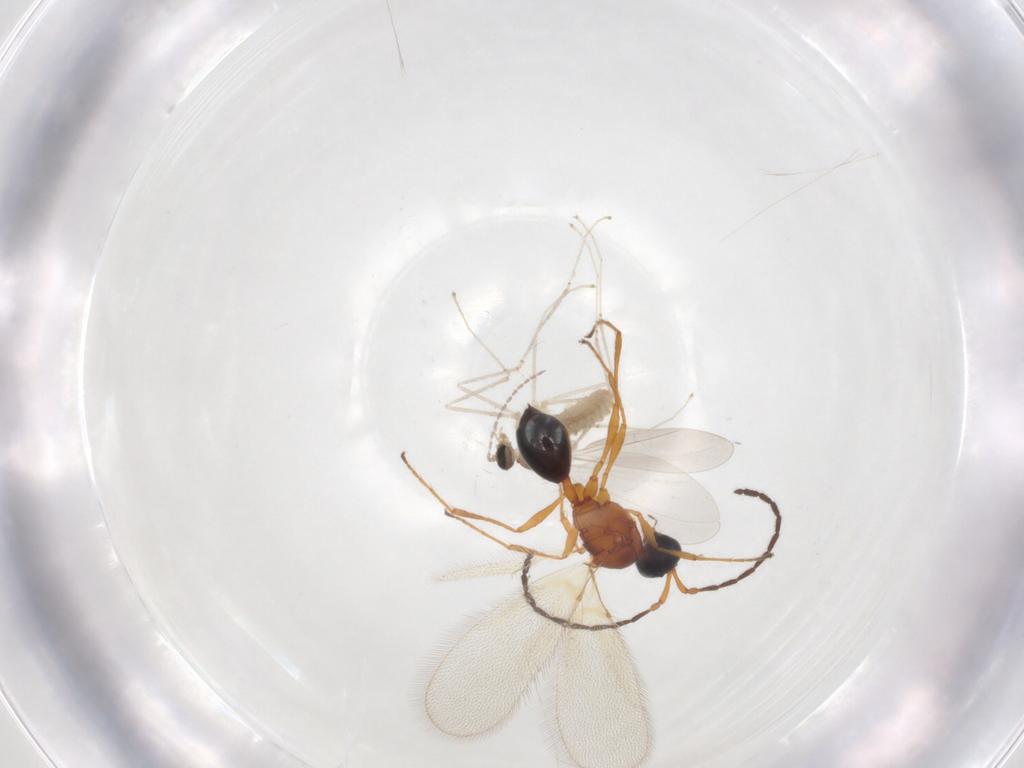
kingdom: Animalia
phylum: Arthropoda
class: Insecta
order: Diptera
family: Cecidomyiidae
